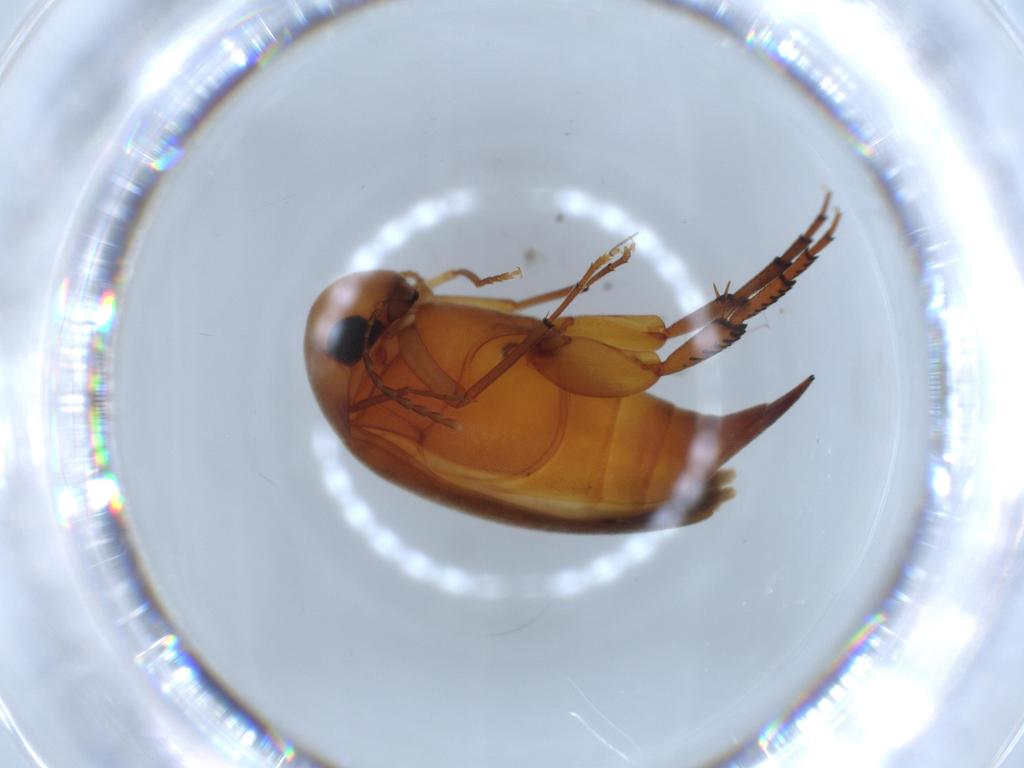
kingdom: Animalia
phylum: Arthropoda
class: Insecta
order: Coleoptera
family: Mordellidae
